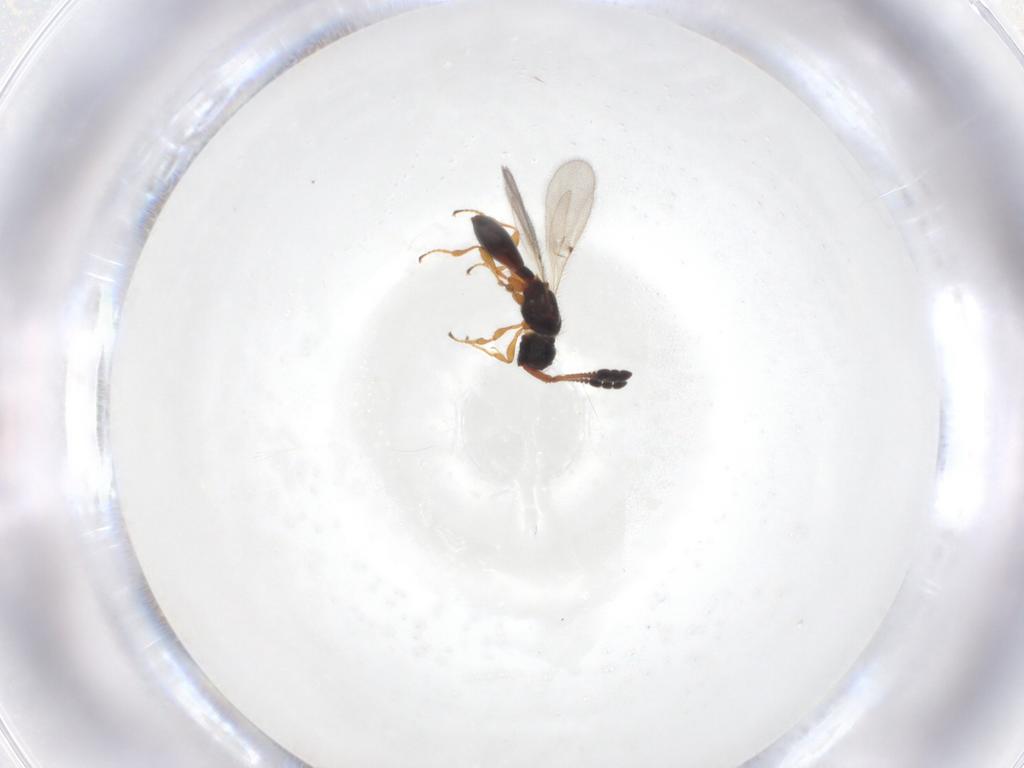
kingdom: Animalia
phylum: Arthropoda
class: Insecta
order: Hymenoptera
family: Diapriidae
